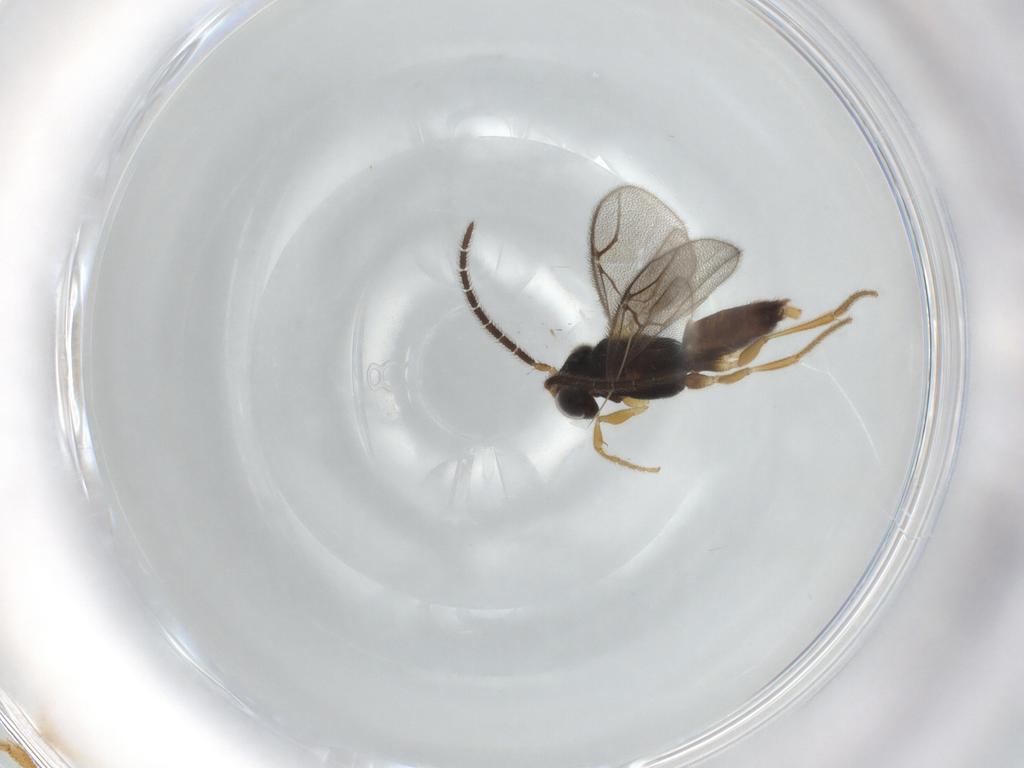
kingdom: Animalia
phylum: Arthropoda
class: Insecta
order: Hymenoptera
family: Dryinidae
